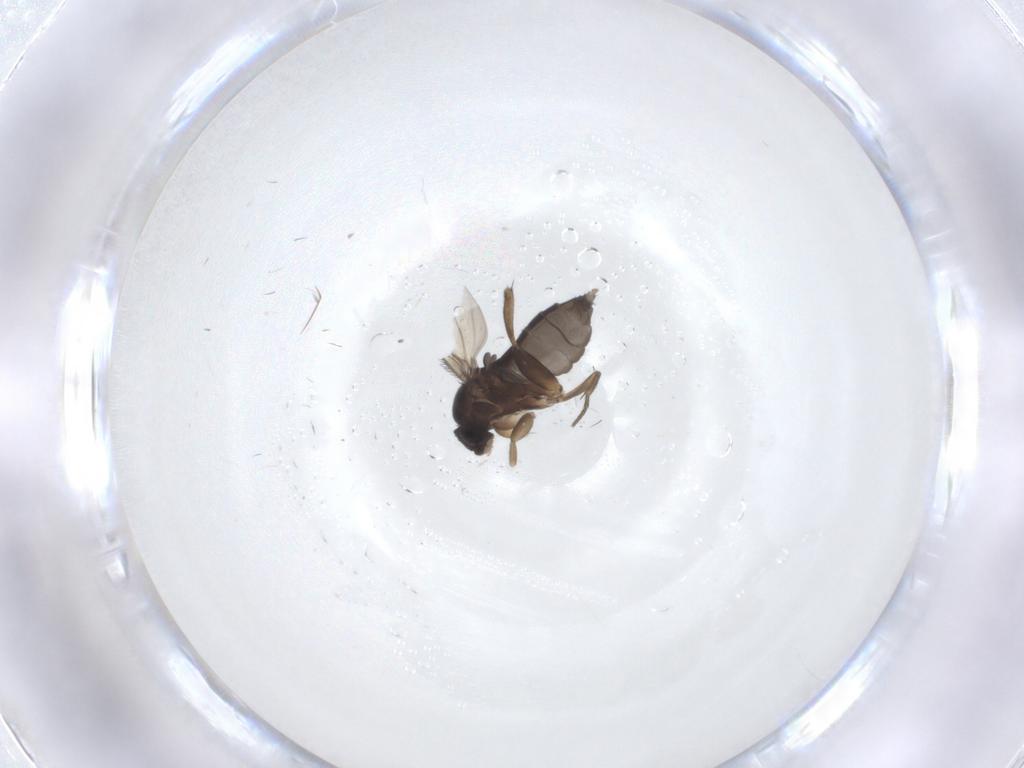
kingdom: Animalia
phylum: Arthropoda
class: Insecta
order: Diptera
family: Phoridae
